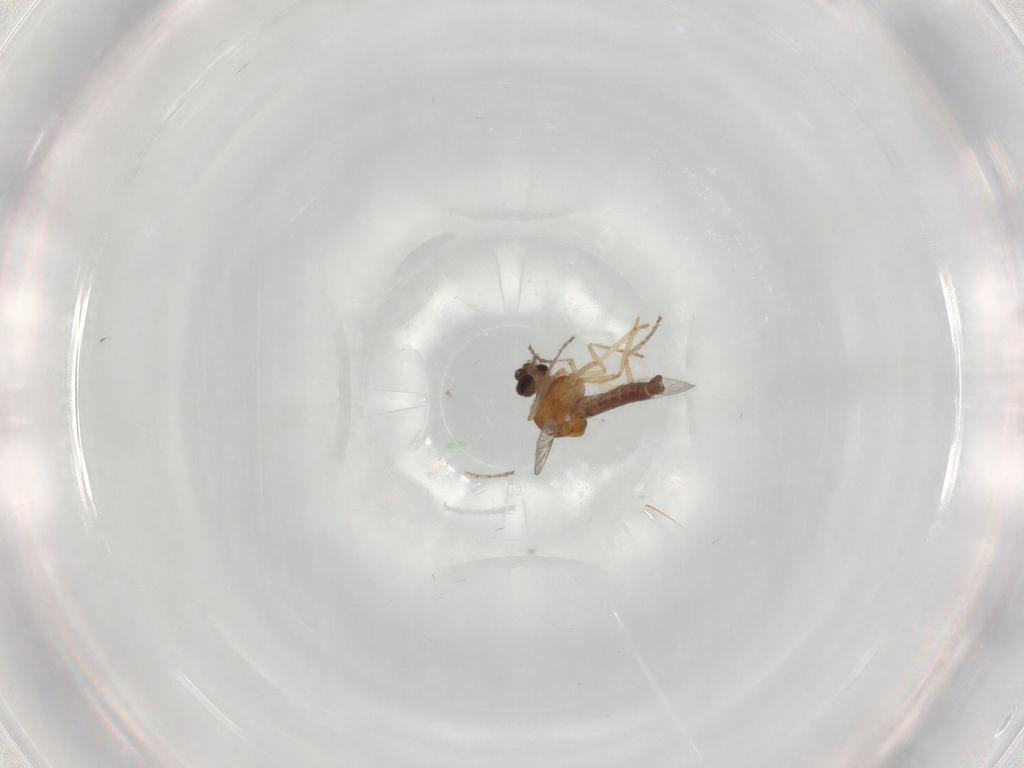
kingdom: Animalia
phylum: Arthropoda
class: Insecta
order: Diptera
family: Ceratopogonidae
